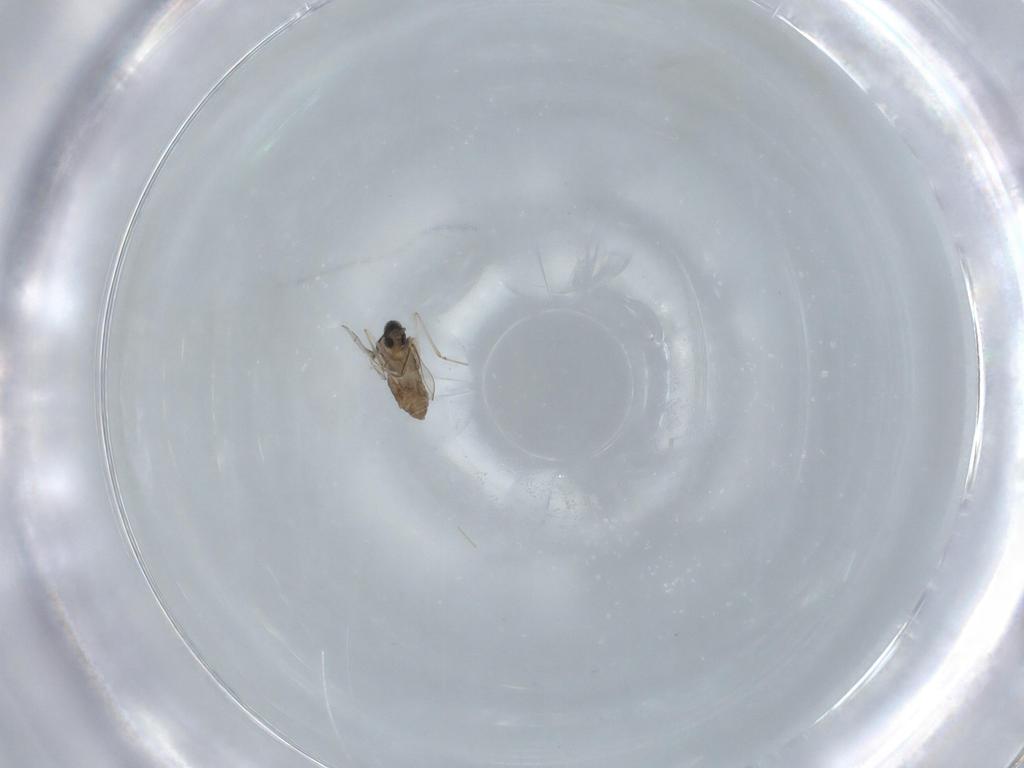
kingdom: Animalia
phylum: Arthropoda
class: Insecta
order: Diptera
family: Cecidomyiidae
